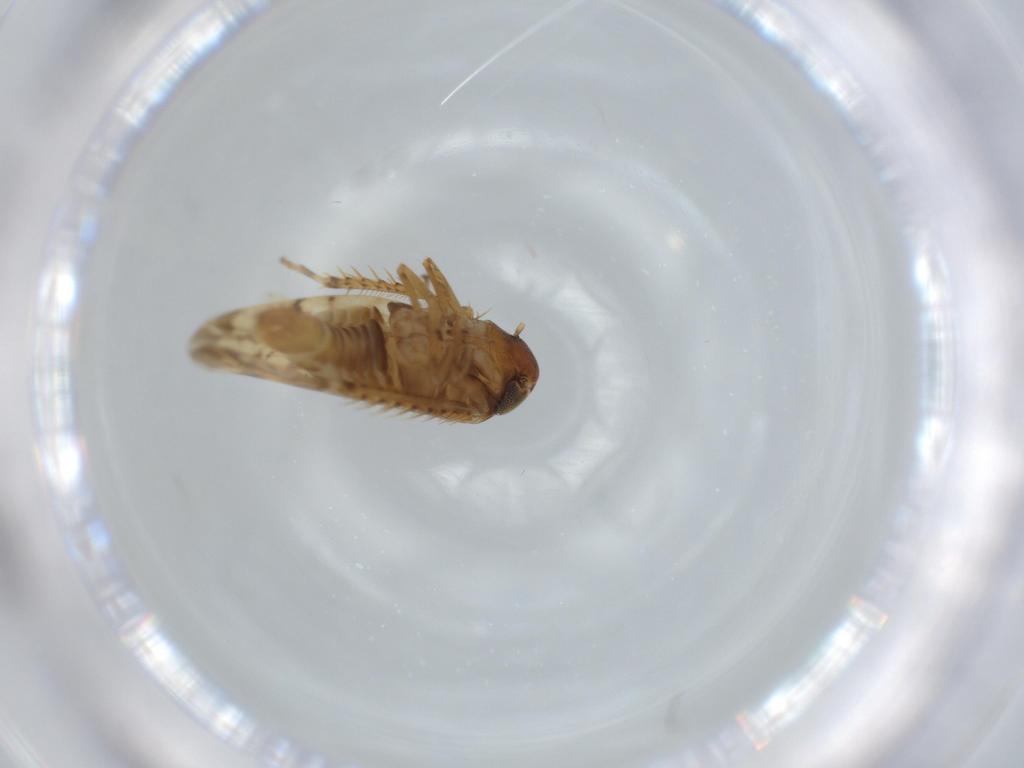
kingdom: Animalia
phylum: Arthropoda
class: Insecta
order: Hemiptera
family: Cicadellidae
